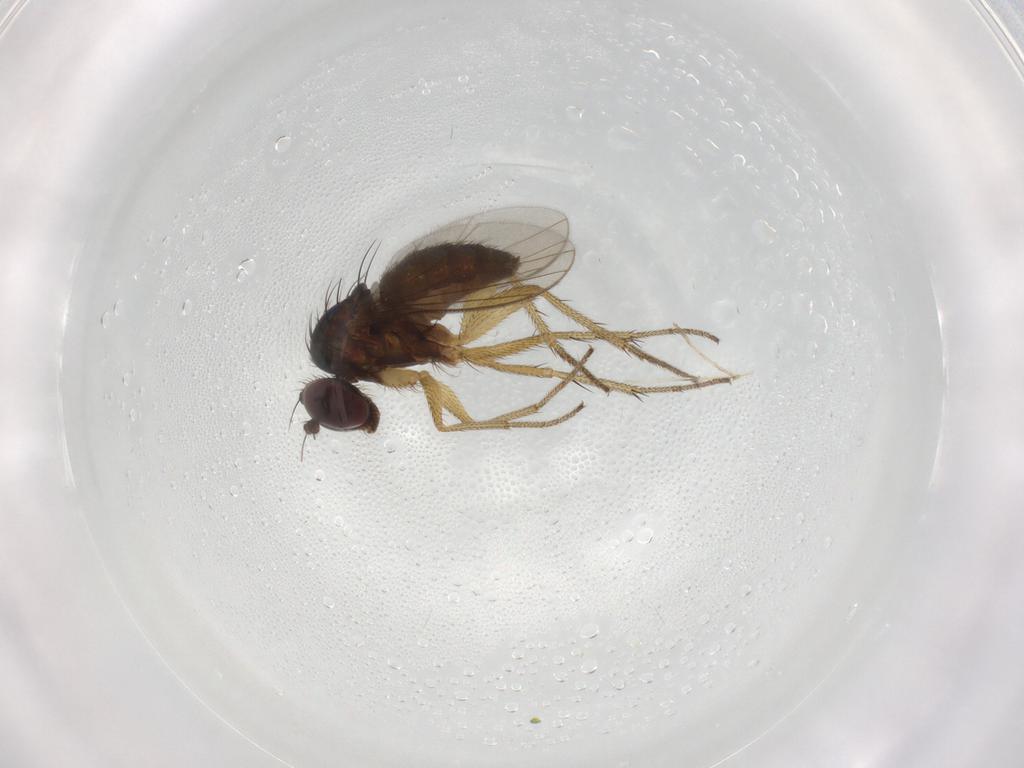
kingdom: Animalia
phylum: Arthropoda
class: Insecta
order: Diptera
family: Dolichopodidae
